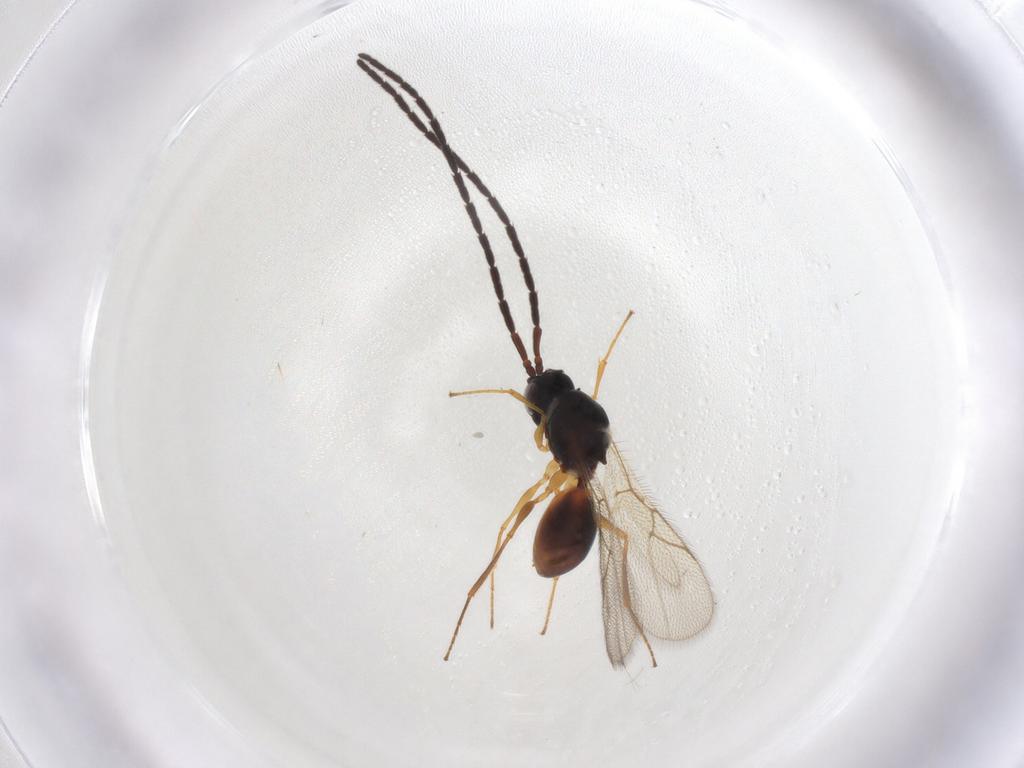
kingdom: Animalia
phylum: Arthropoda
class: Insecta
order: Hymenoptera
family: Figitidae
